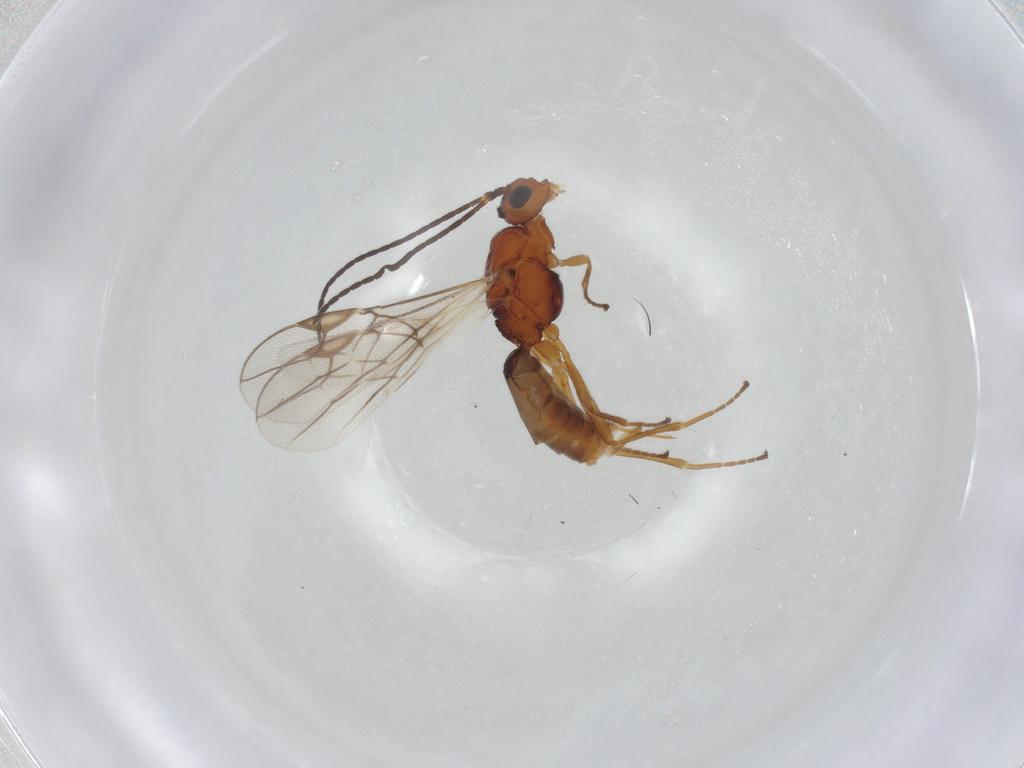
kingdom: Animalia
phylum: Arthropoda
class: Insecta
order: Hymenoptera
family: Braconidae
